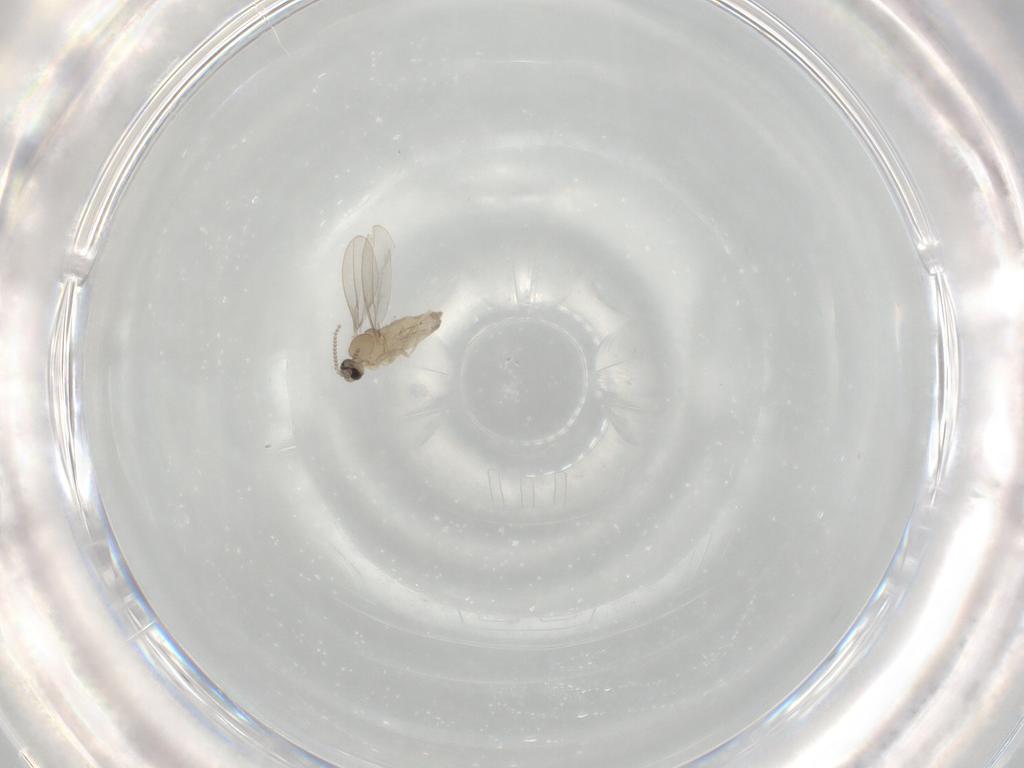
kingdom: Animalia
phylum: Arthropoda
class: Insecta
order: Diptera
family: Cecidomyiidae
